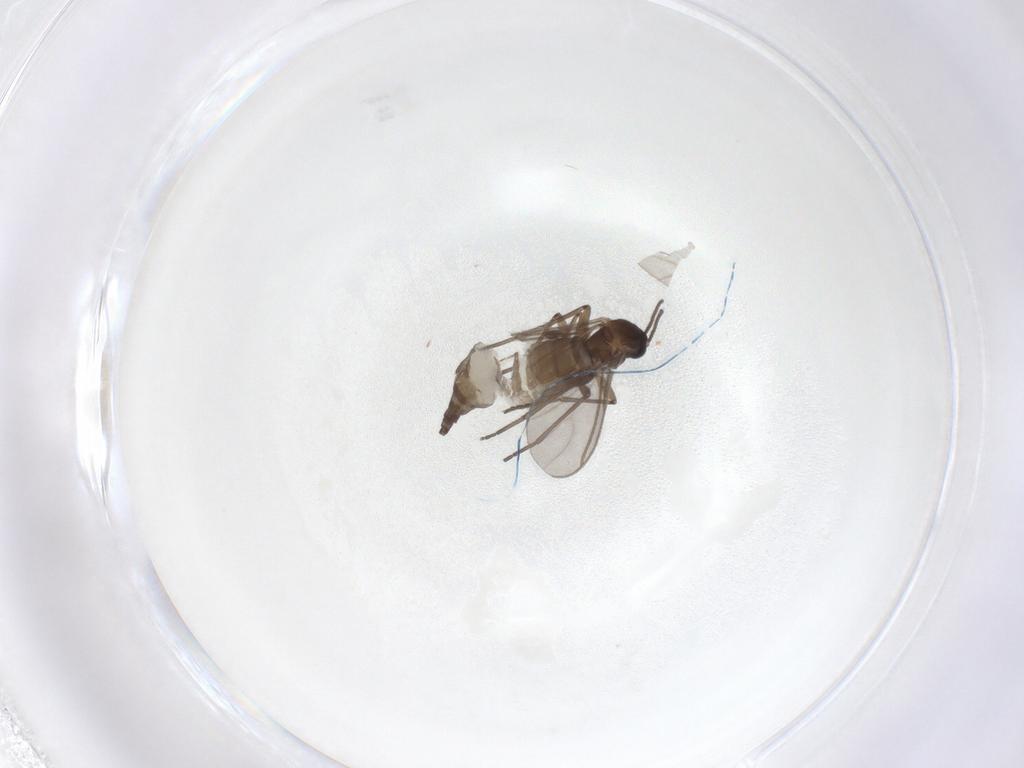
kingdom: Animalia
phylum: Arthropoda
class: Insecta
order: Diptera
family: Sciaridae
